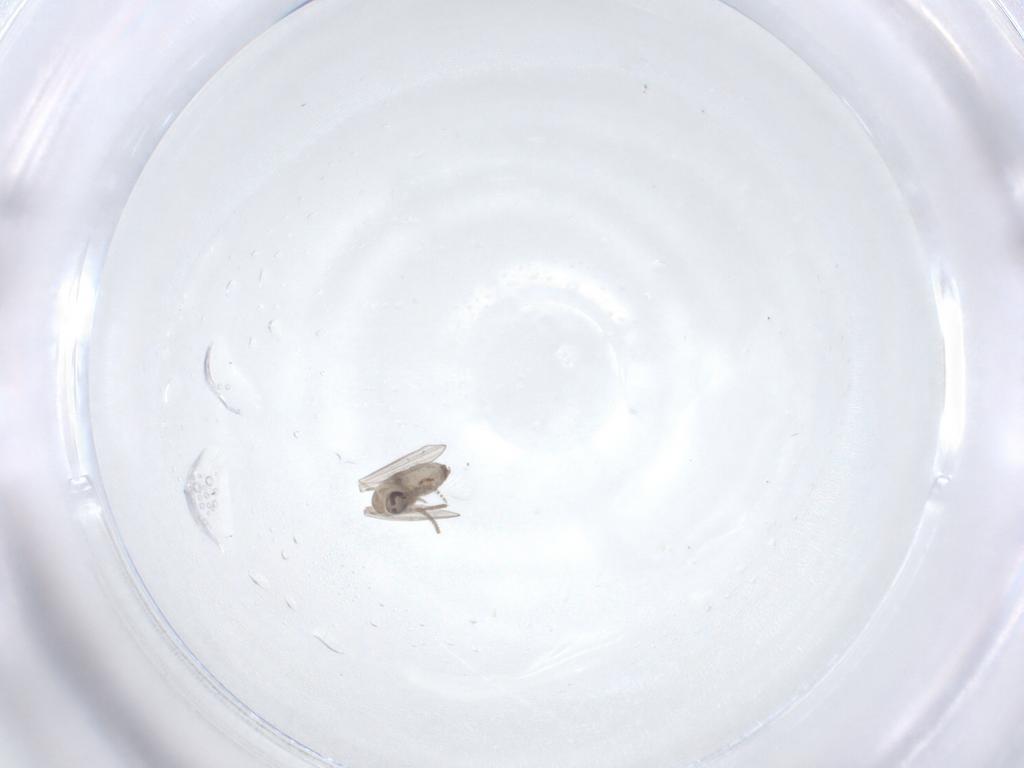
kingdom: Animalia
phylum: Arthropoda
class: Insecta
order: Diptera
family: Psychodidae
